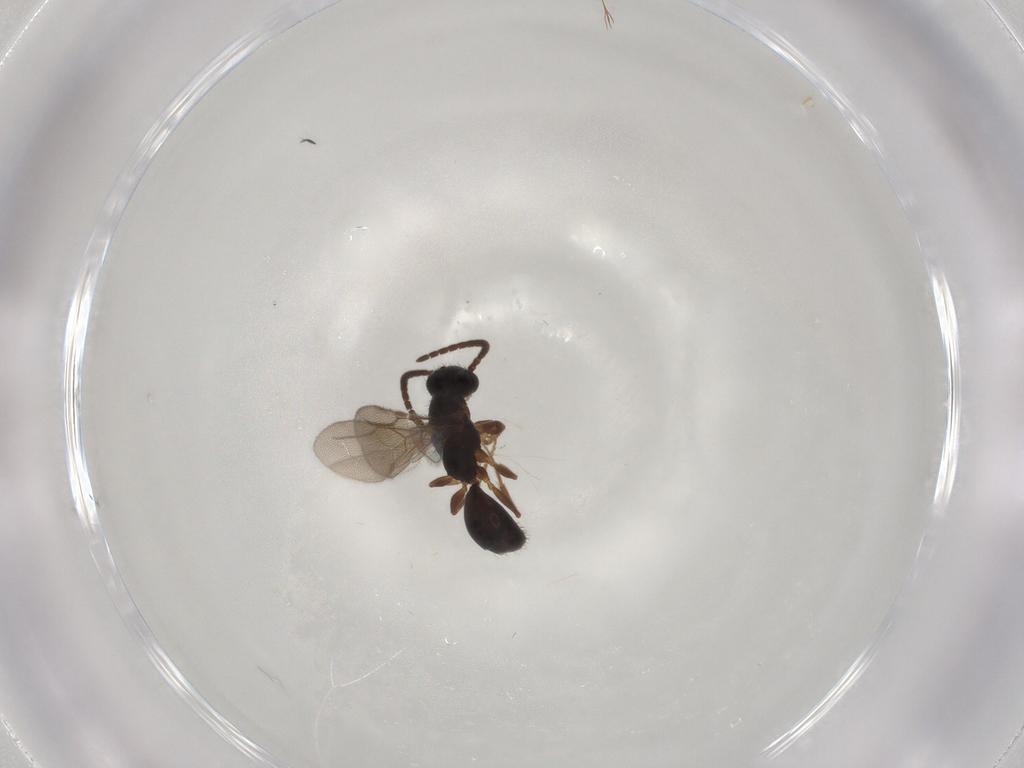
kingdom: Animalia
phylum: Arthropoda
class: Insecta
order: Hymenoptera
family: Bethylidae
